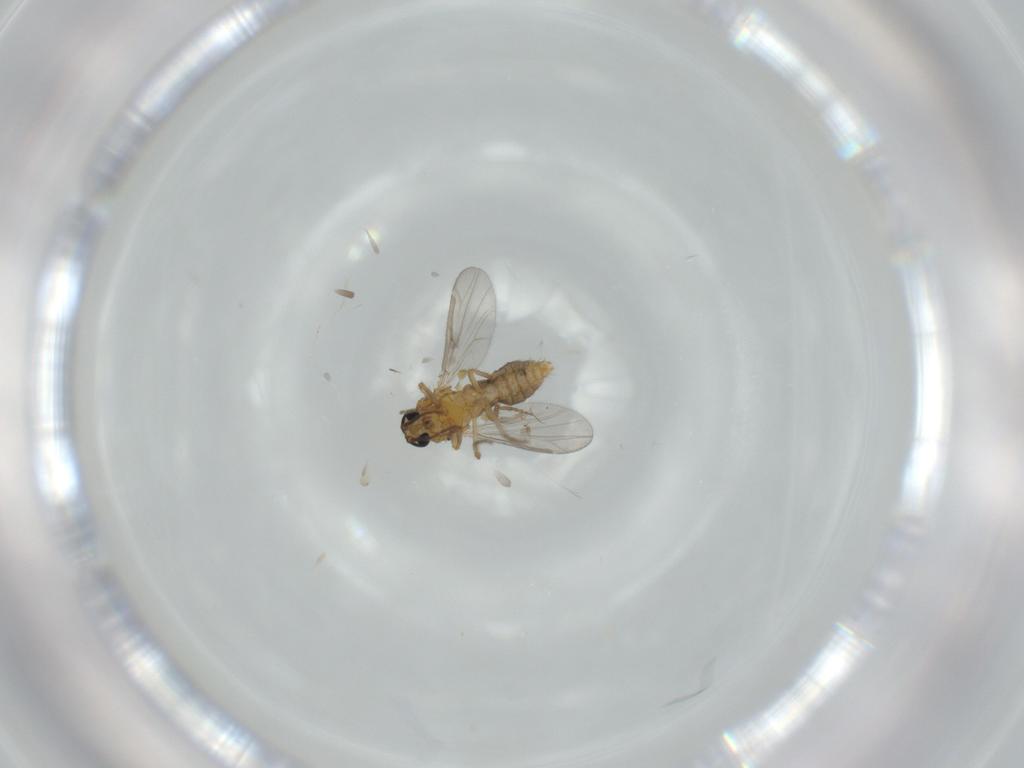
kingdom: Animalia
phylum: Arthropoda
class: Insecta
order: Diptera
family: Ceratopogonidae
